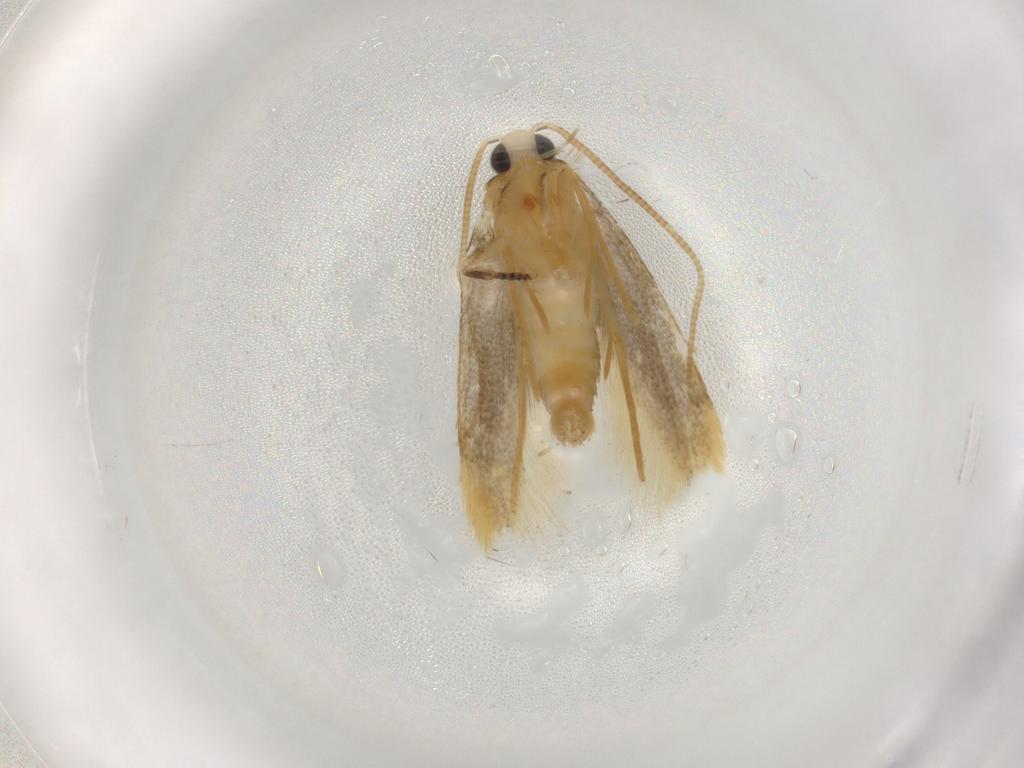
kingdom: Animalia
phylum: Arthropoda
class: Insecta
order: Lepidoptera
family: Tineidae
